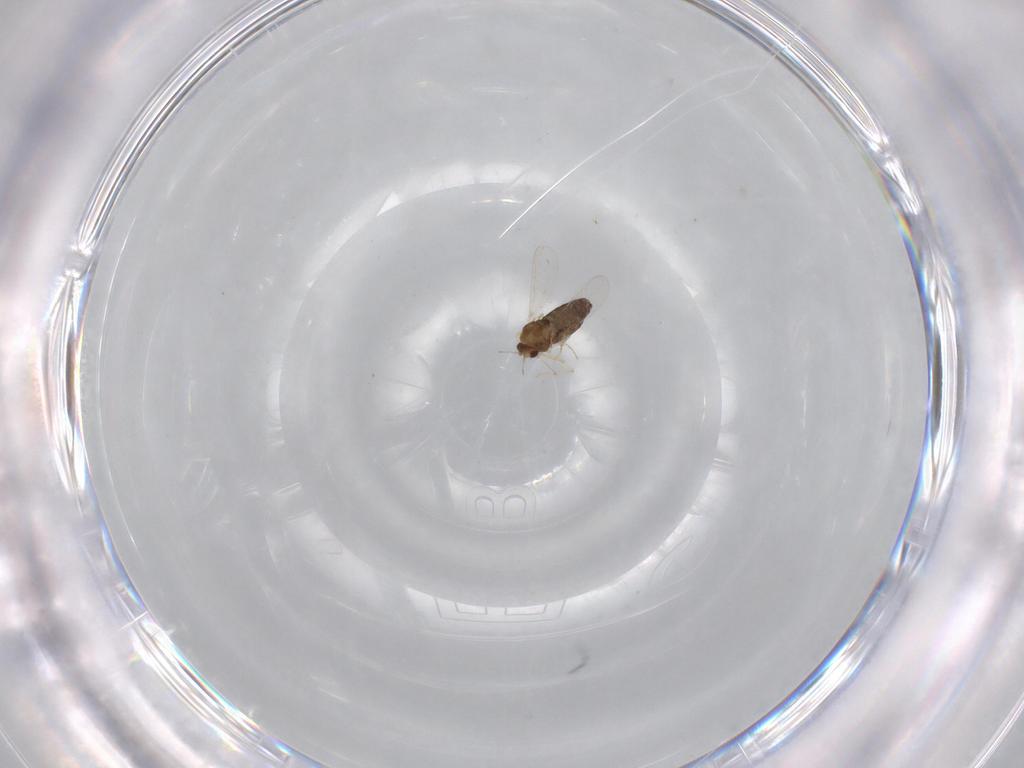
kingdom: Animalia
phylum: Arthropoda
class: Insecta
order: Diptera
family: Chironomidae
